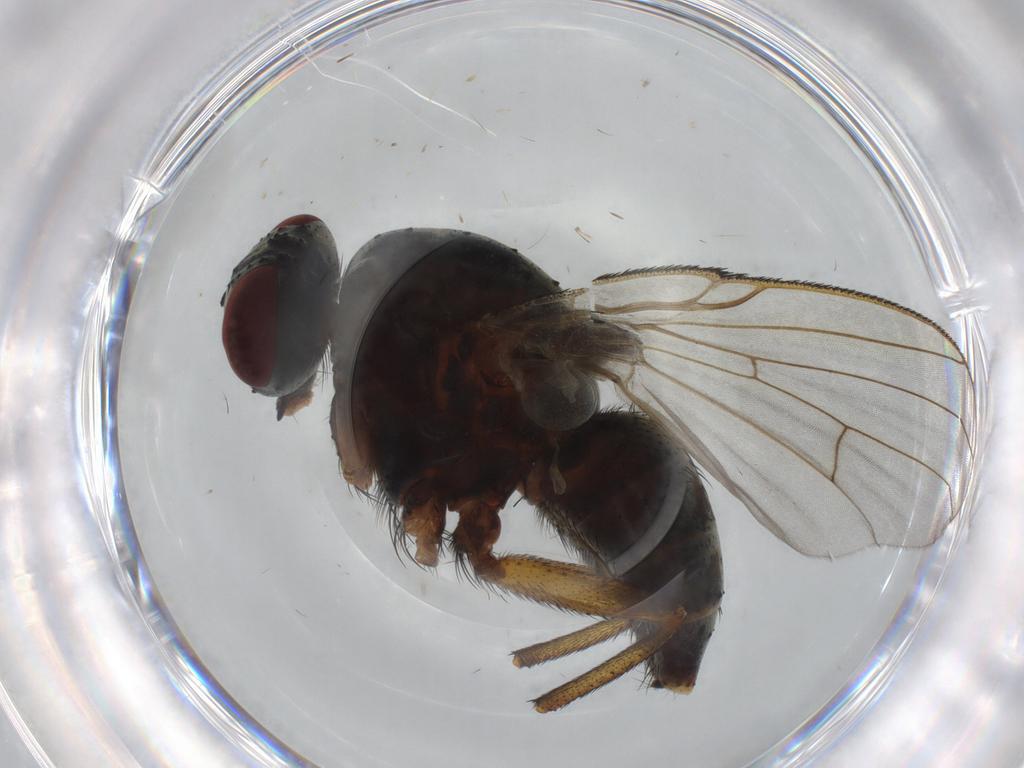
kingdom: Animalia
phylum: Arthropoda
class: Insecta
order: Diptera
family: Muscidae
